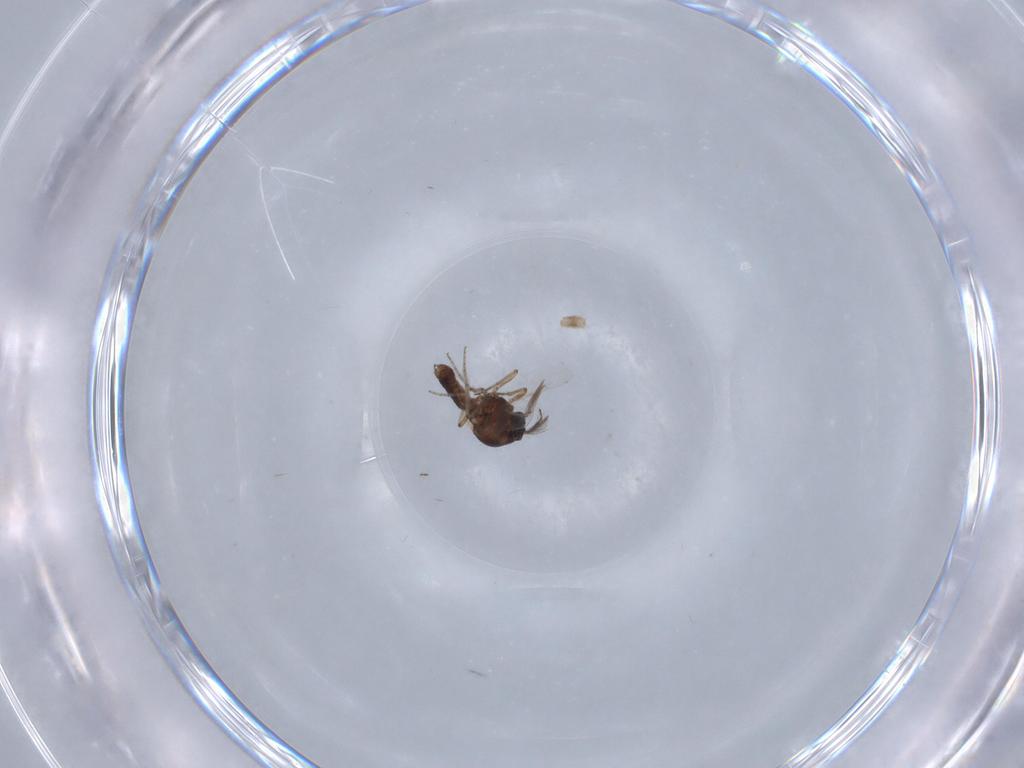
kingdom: Animalia
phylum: Arthropoda
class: Insecta
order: Diptera
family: Ceratopogonidae
